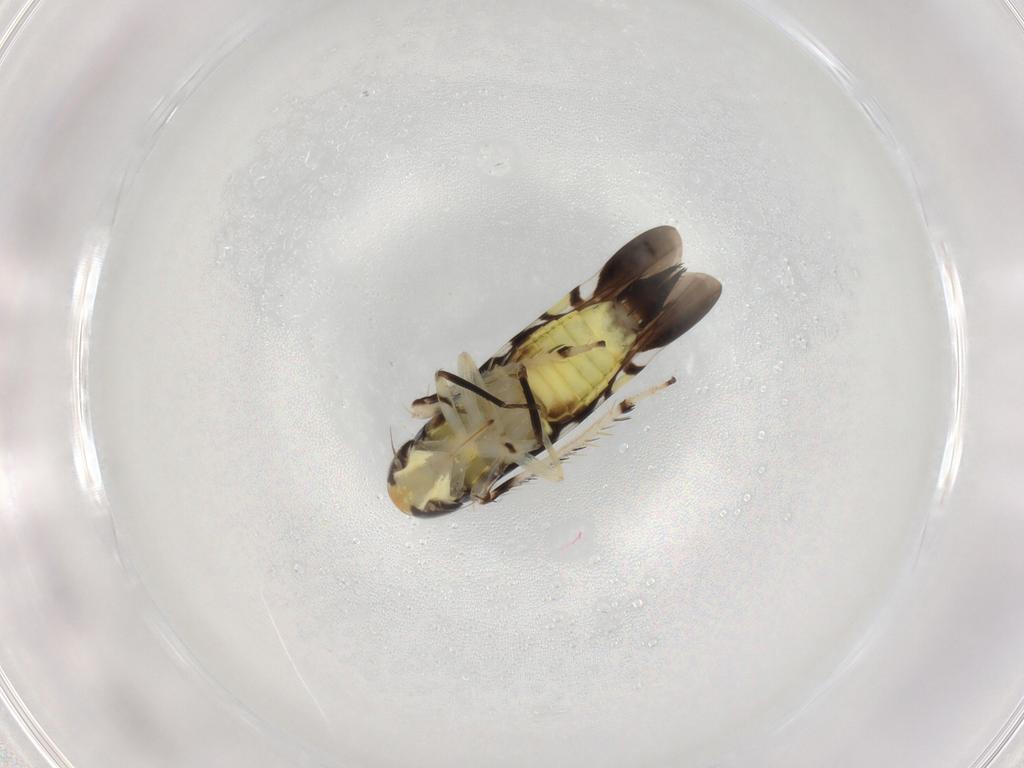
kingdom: Animalia
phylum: Arthropoda
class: Insecta
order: Hemiptera
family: Cicadellidae
